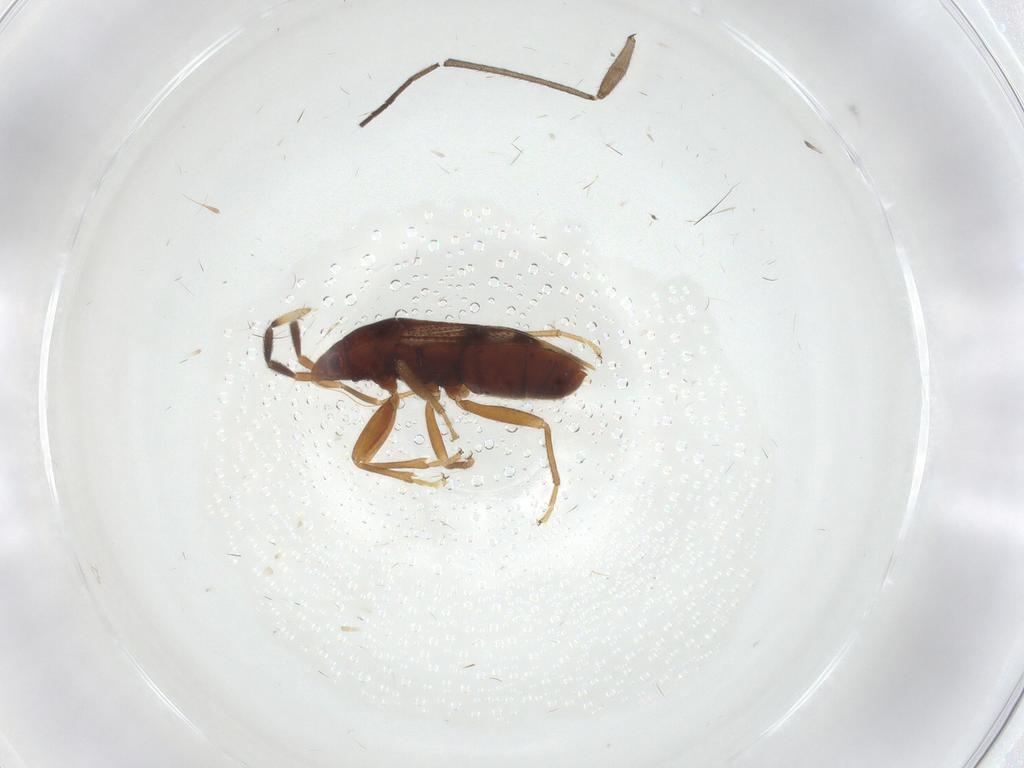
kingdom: Animalia
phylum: Arthropoda
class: Insecta
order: Hemiptera
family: Rhyparochromidae
